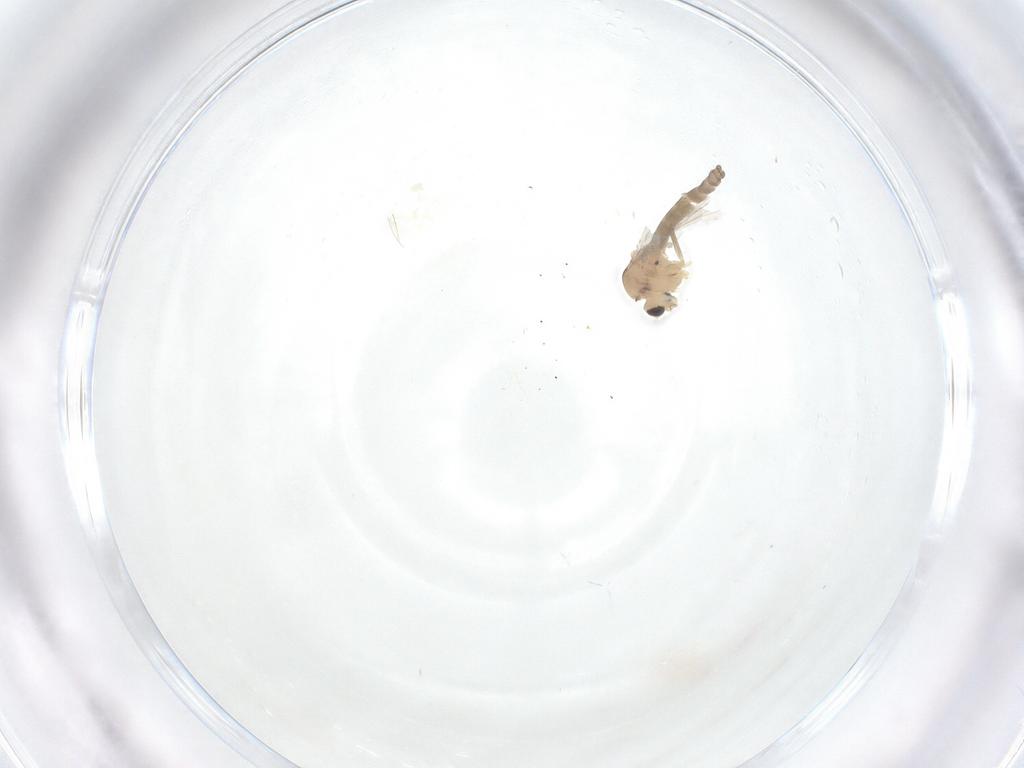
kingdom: Animalia
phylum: Arthropoda
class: Insecta
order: Diptera
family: Chironomidae
